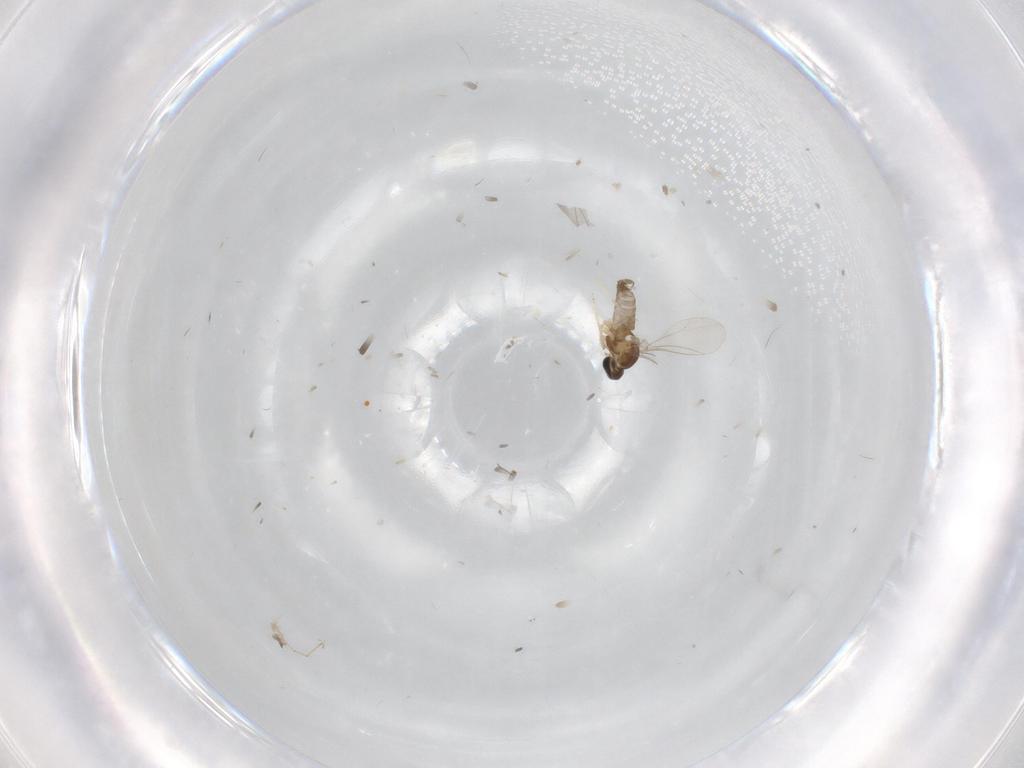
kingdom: Animalia
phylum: Arthropoda
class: Insecta
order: Diptera
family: Cecidomyiidae
